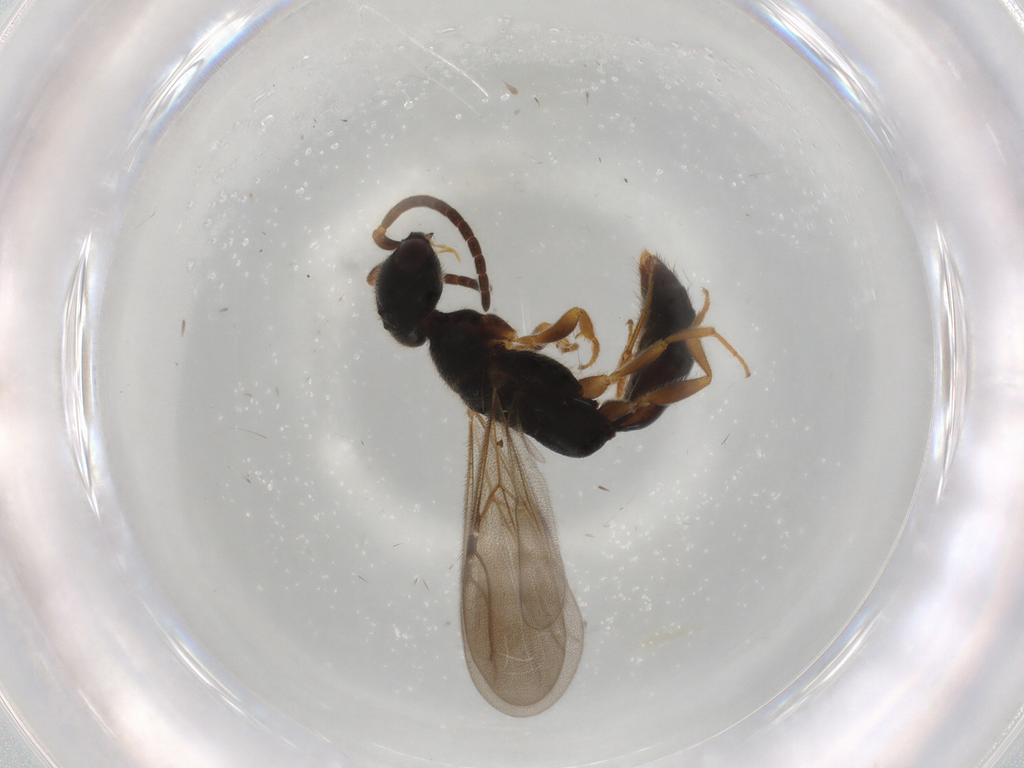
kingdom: Animalia
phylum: Arthropoda
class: Insecta
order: Hymenoptera
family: Bethylidae
